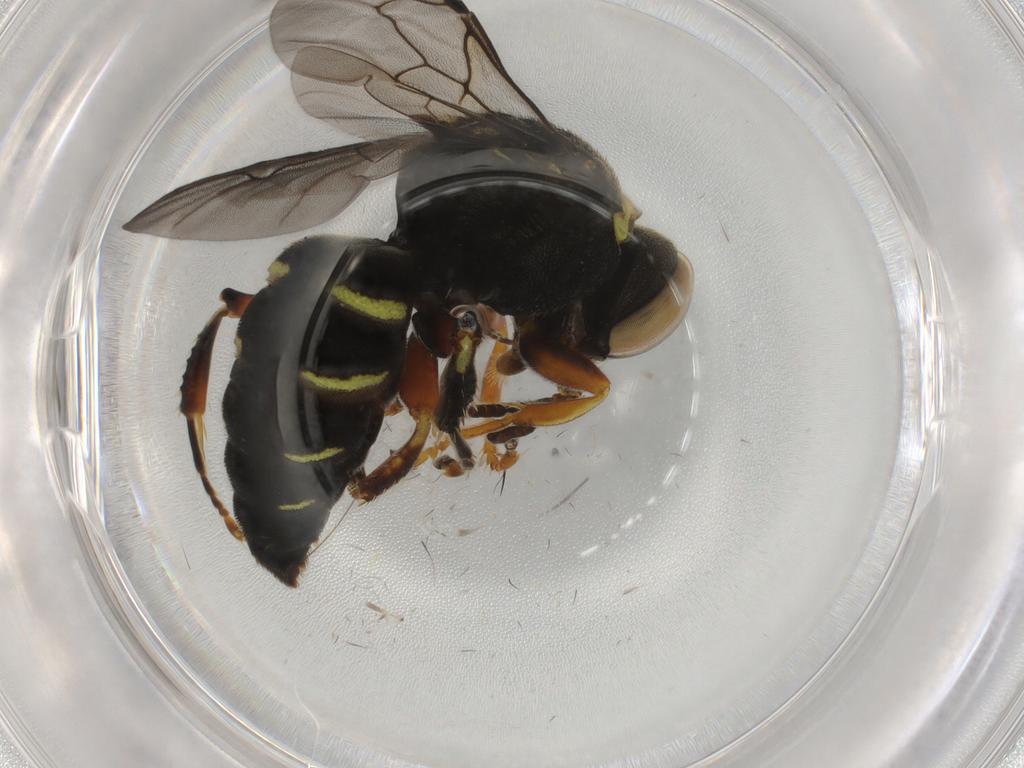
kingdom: Animalia
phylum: Arthropoda
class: Insecta
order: Hymenoptera
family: Crabronidae
